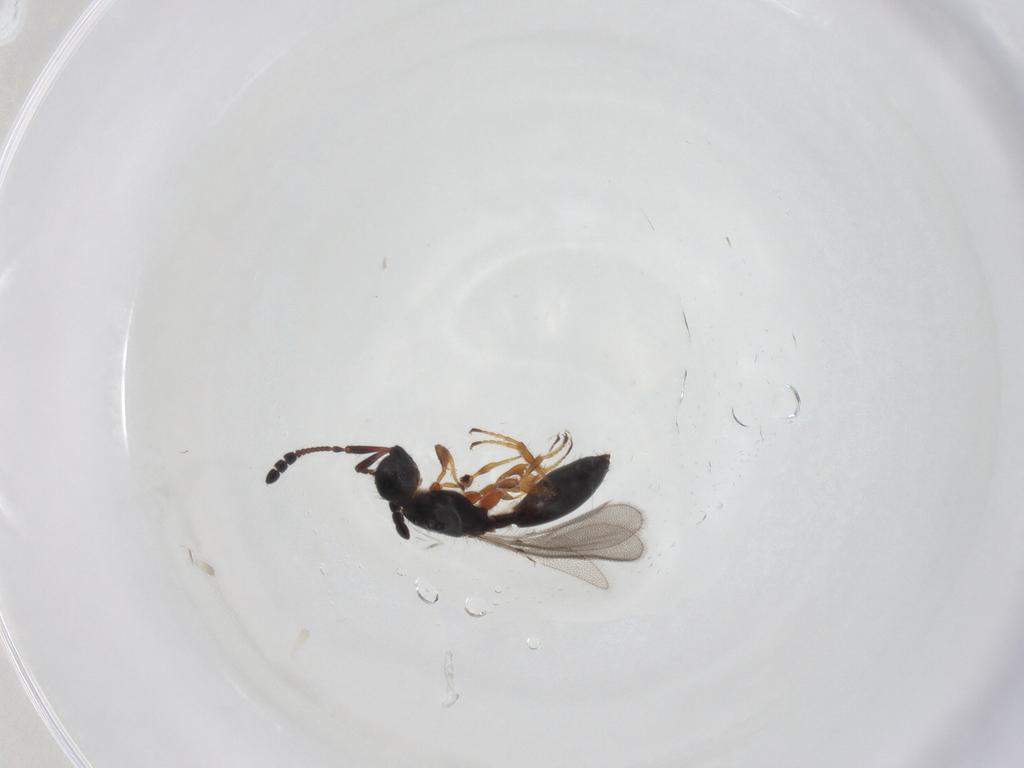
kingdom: Animalia
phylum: Arthropoda
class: Insecta
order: Hymenoptera
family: Diapriidae
